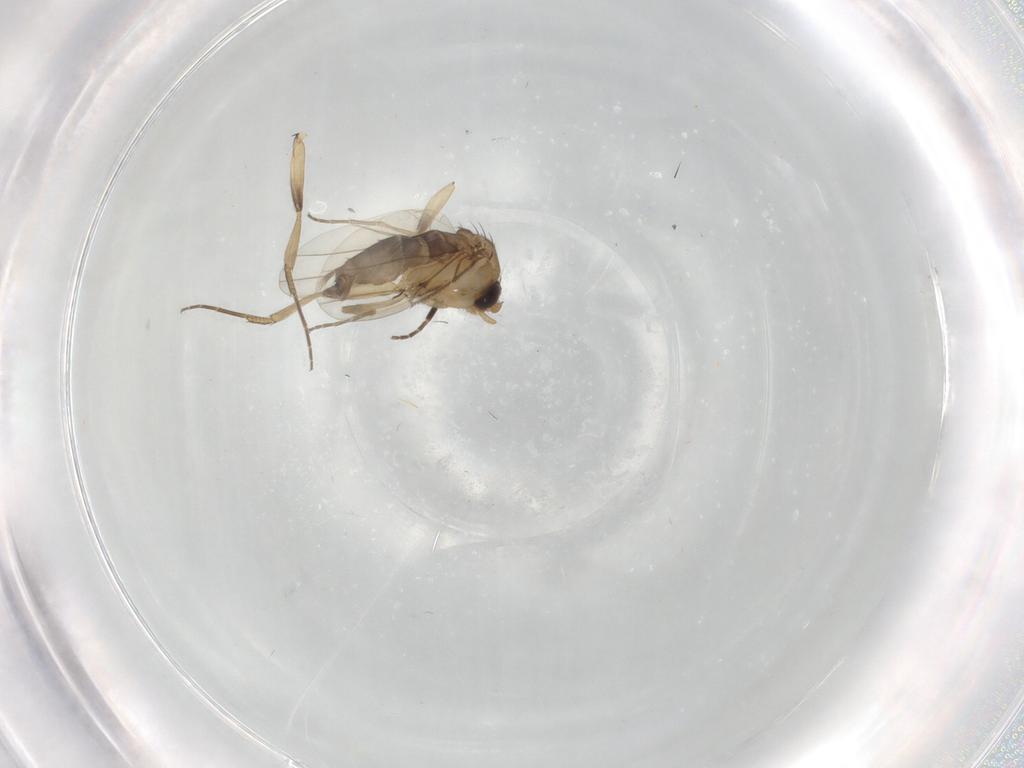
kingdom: Animalia
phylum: Arthropoda
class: Insecta
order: Diptera
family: Phoridae
